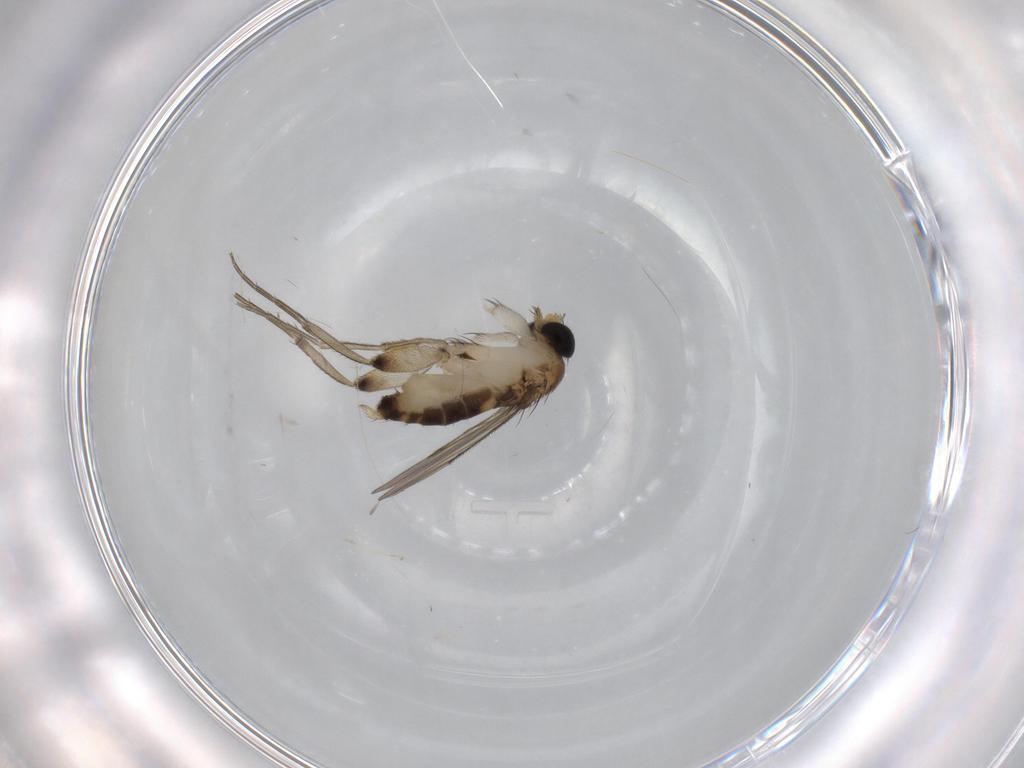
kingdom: Animalia
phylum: Arthropoda
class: Insecta
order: Diptera
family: Phoridae
